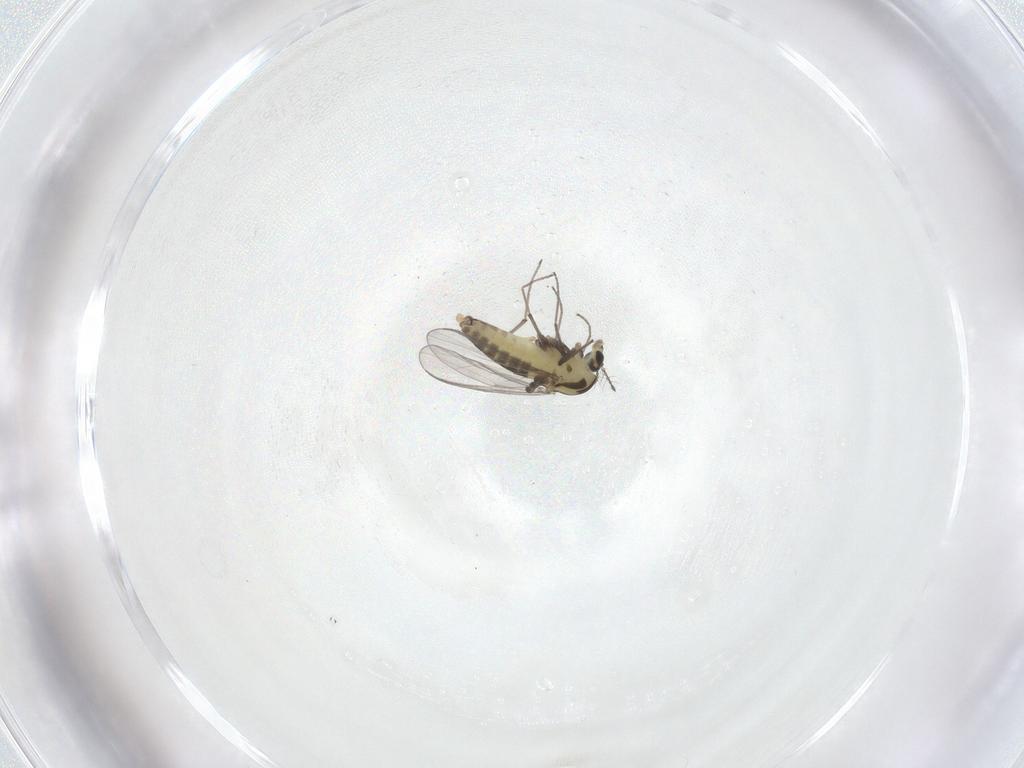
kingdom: Animalia
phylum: Arthropoda
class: Insecta
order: Diptera
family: Chironomidae
